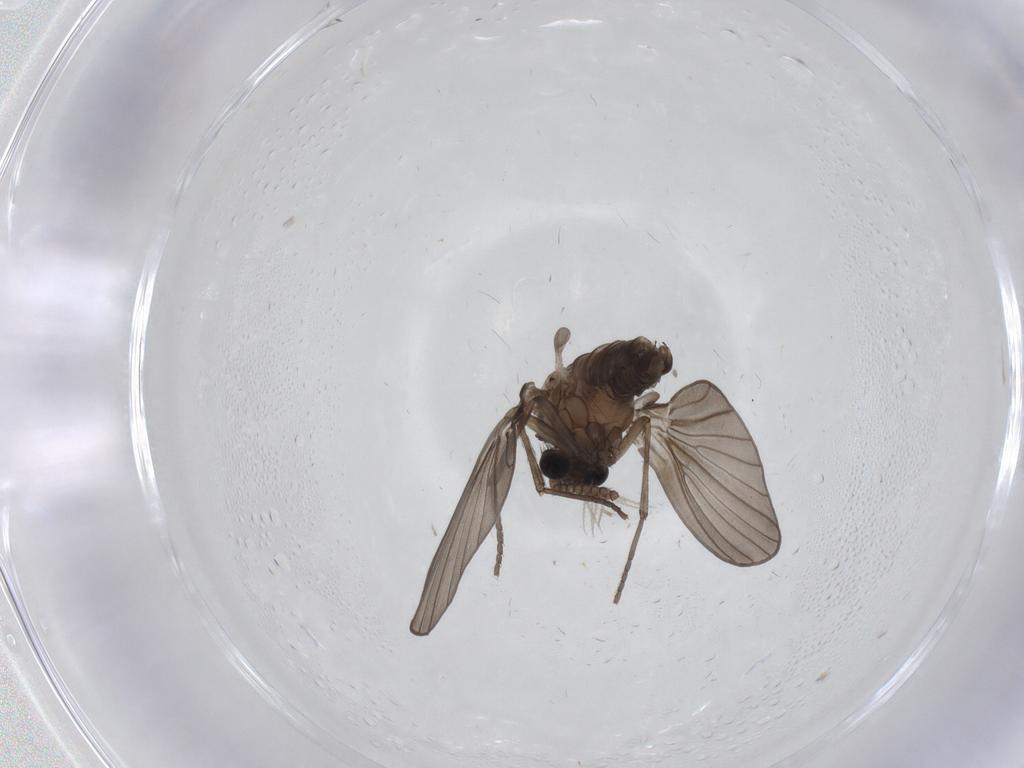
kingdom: Animalia
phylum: Arthropoda
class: Insecta
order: Diptera
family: Psychodidae
